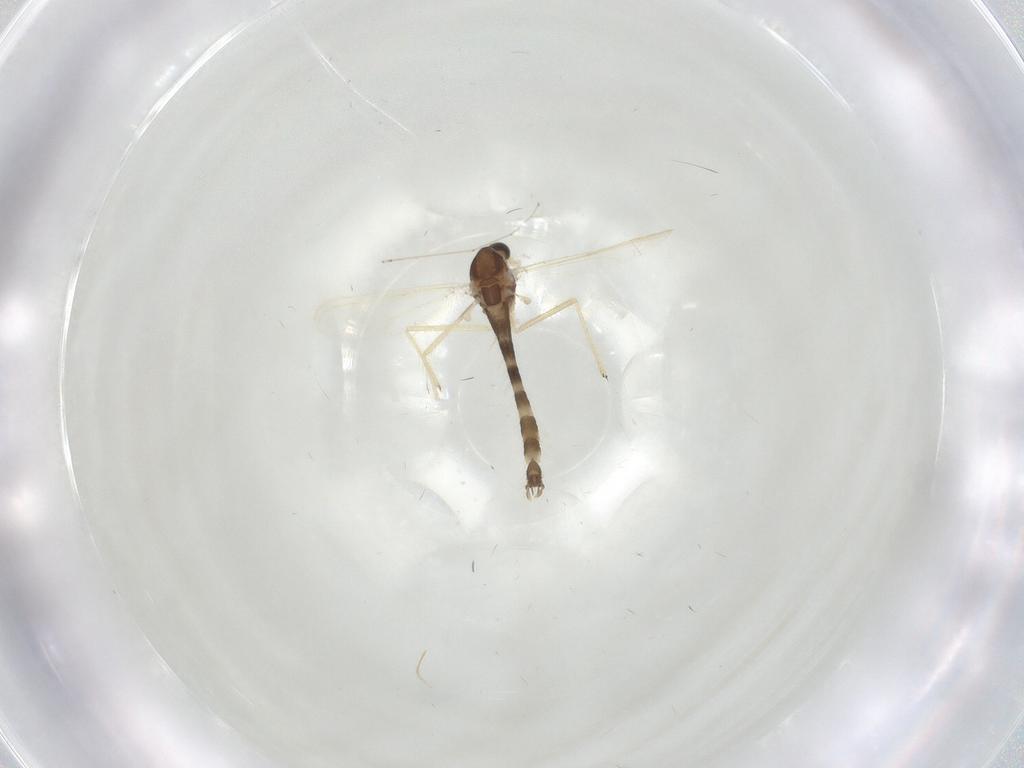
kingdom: Animalia
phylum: Arthropoda
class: Insecta
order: Diptera
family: Chironomidae
